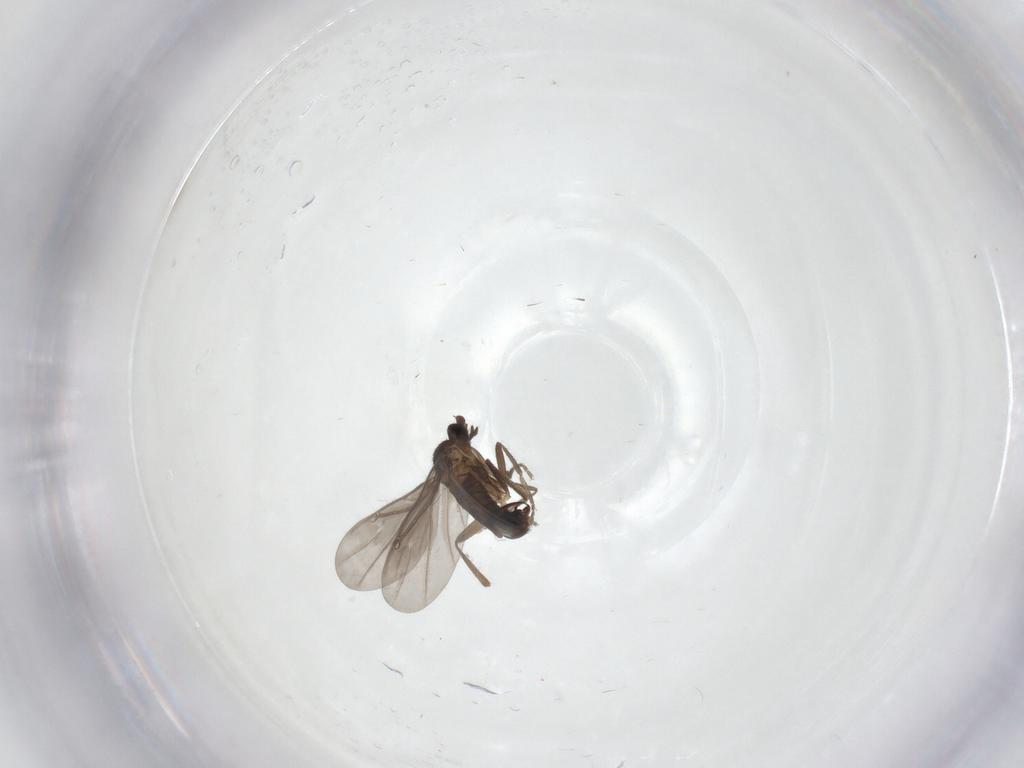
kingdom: Animalia
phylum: Arthropoda
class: Insecta
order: Diptera
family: Phoridae
